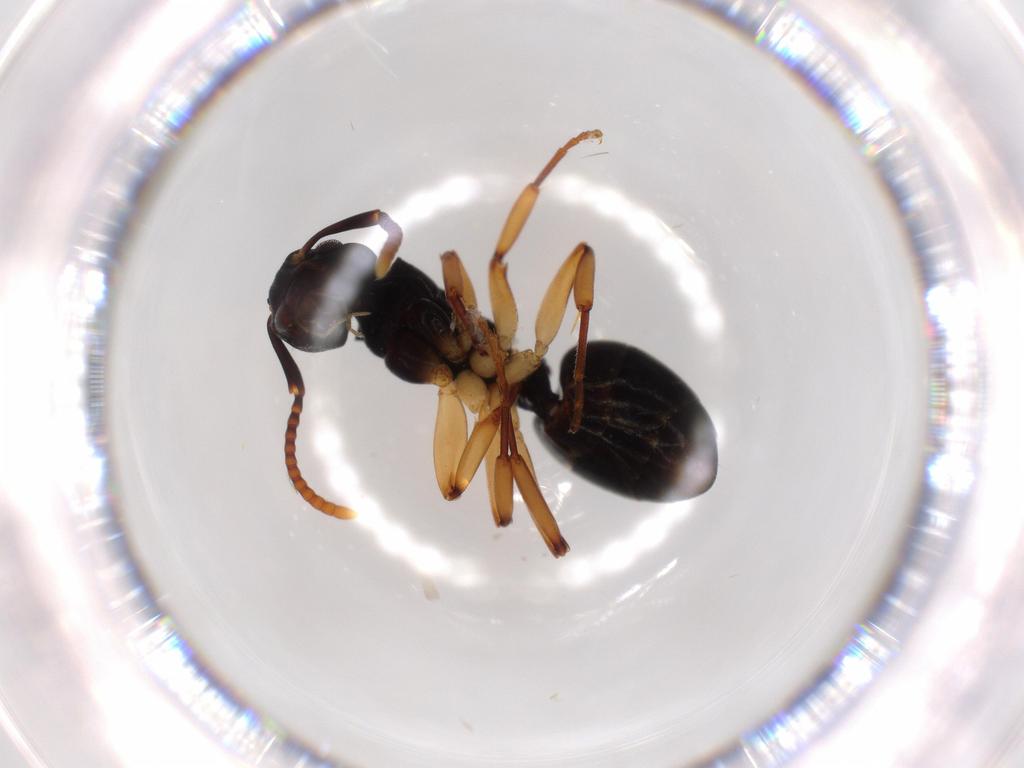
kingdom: Animalia
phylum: Arthropoda
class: Insecta
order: Hymenoptera
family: Formicidae
